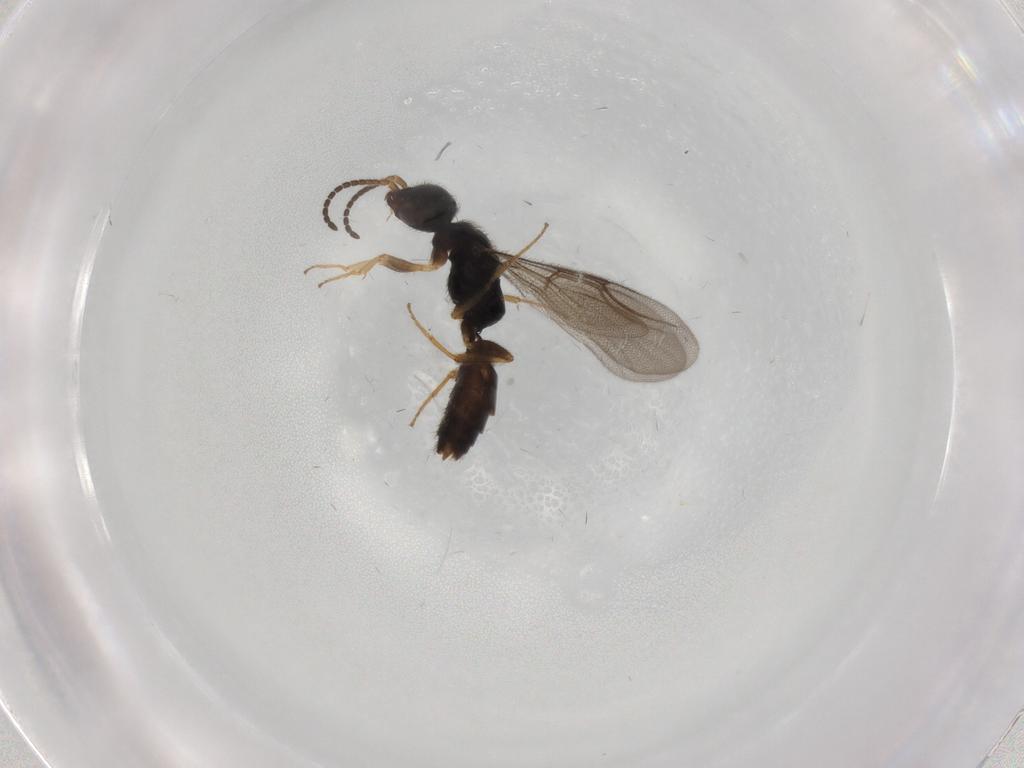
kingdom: Animalia
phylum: Arthropoda
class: Insecta
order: Hymenoptera
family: Bethylidae
